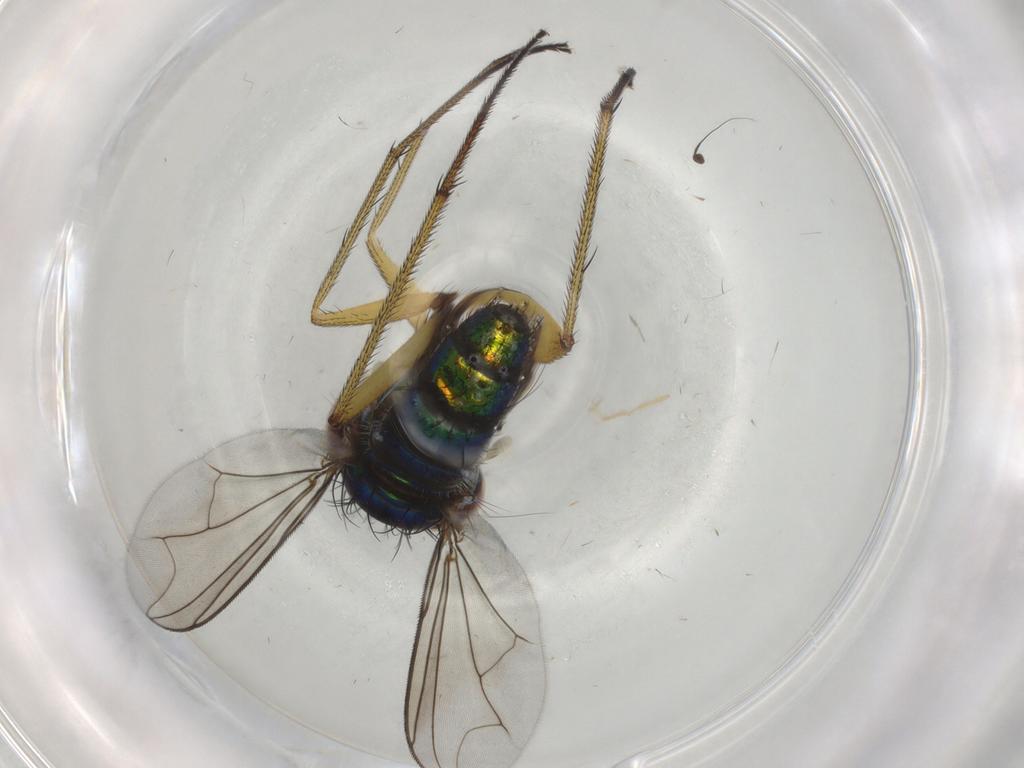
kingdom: Animalia
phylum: Arthropoda
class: Insecta
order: Diptera
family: Dolichopodidae
